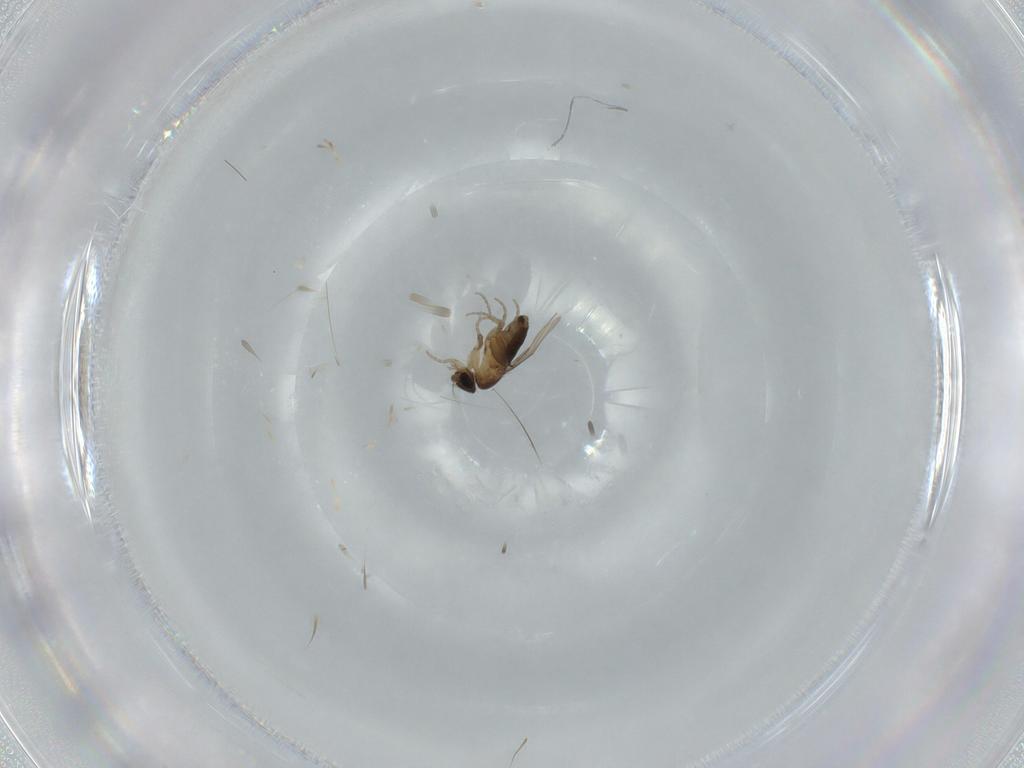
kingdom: Animalia
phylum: Arthropoda
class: Insecta
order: Diptera
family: Phoridae
